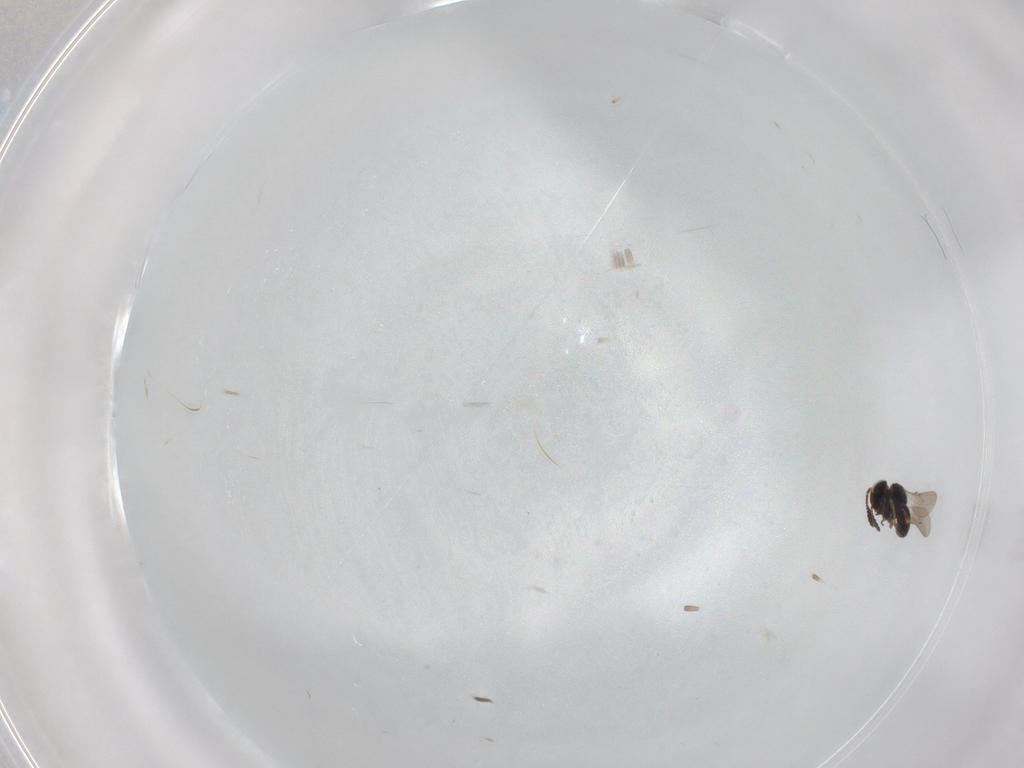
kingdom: Animalia
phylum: Arthropoda
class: Insecta
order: Hymenoptera
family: Scelionidae
